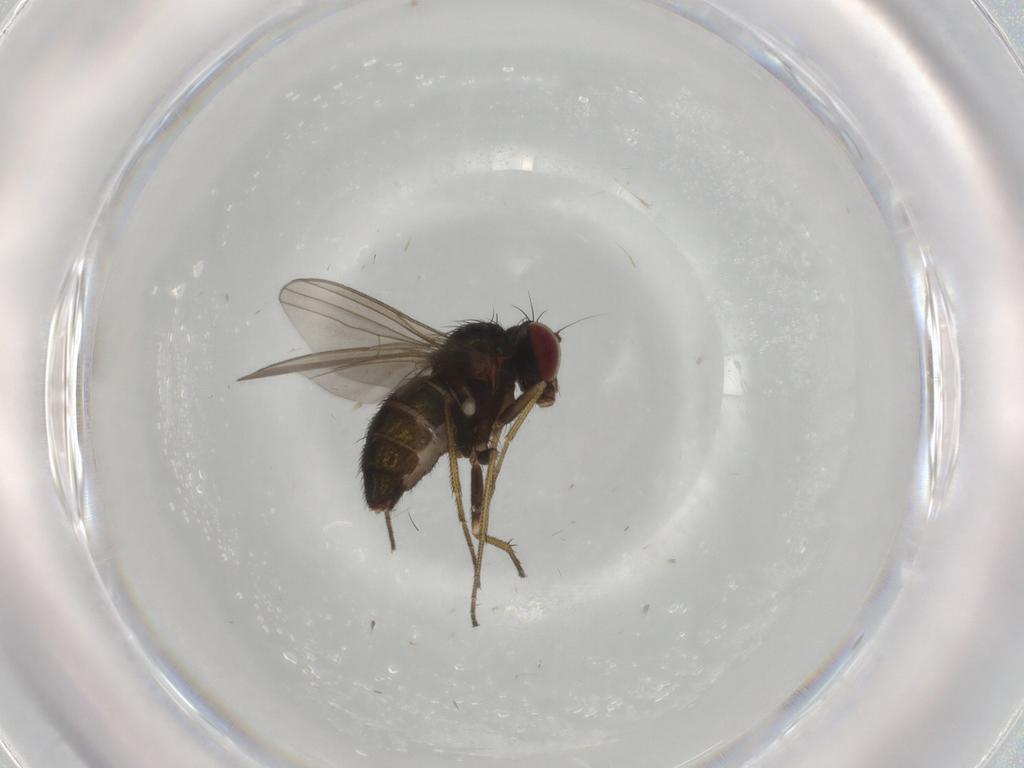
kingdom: Animalia
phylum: Arthropoda
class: Insecta
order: Diptera
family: Dolichopodidae
